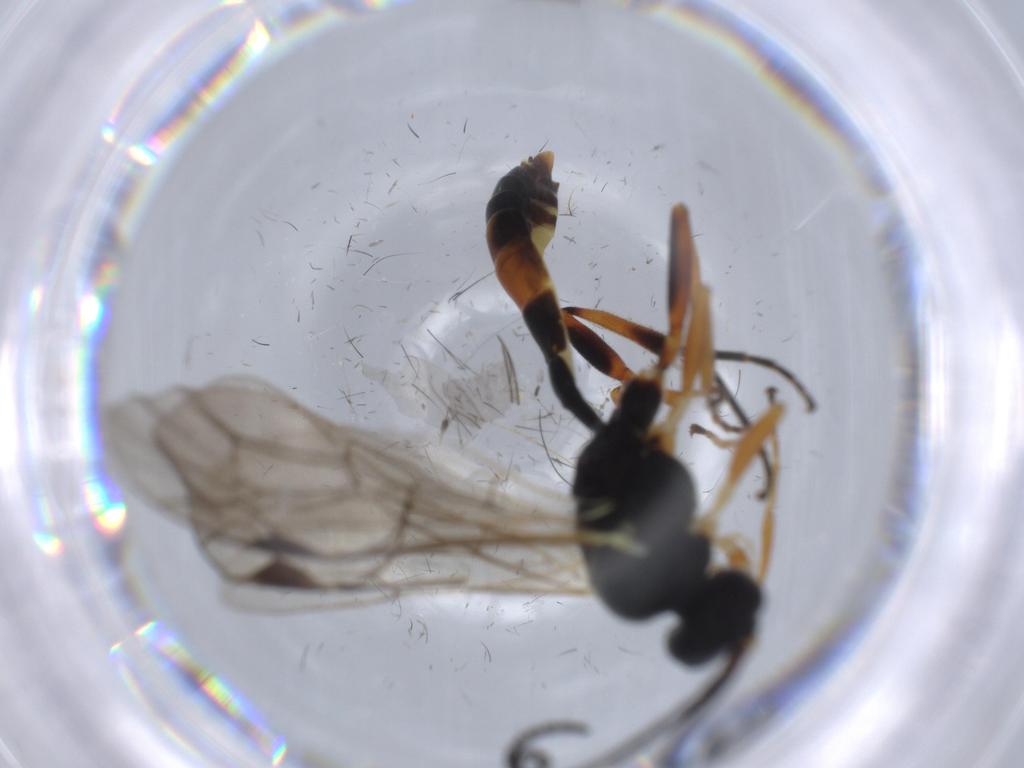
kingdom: Animalia
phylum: Arthropoda
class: Insecta
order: Hymenoptera
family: Ichneumonidae
